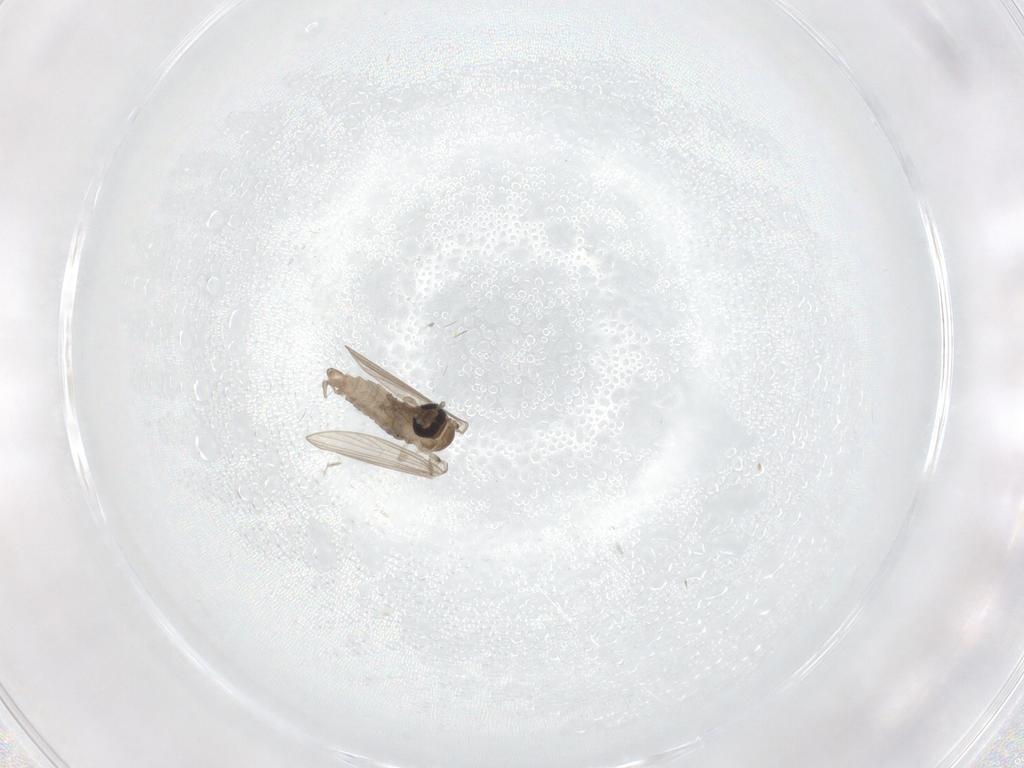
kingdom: Animalia
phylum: Arthropoda
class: Insecta
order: Diptera
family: Psychodidae
